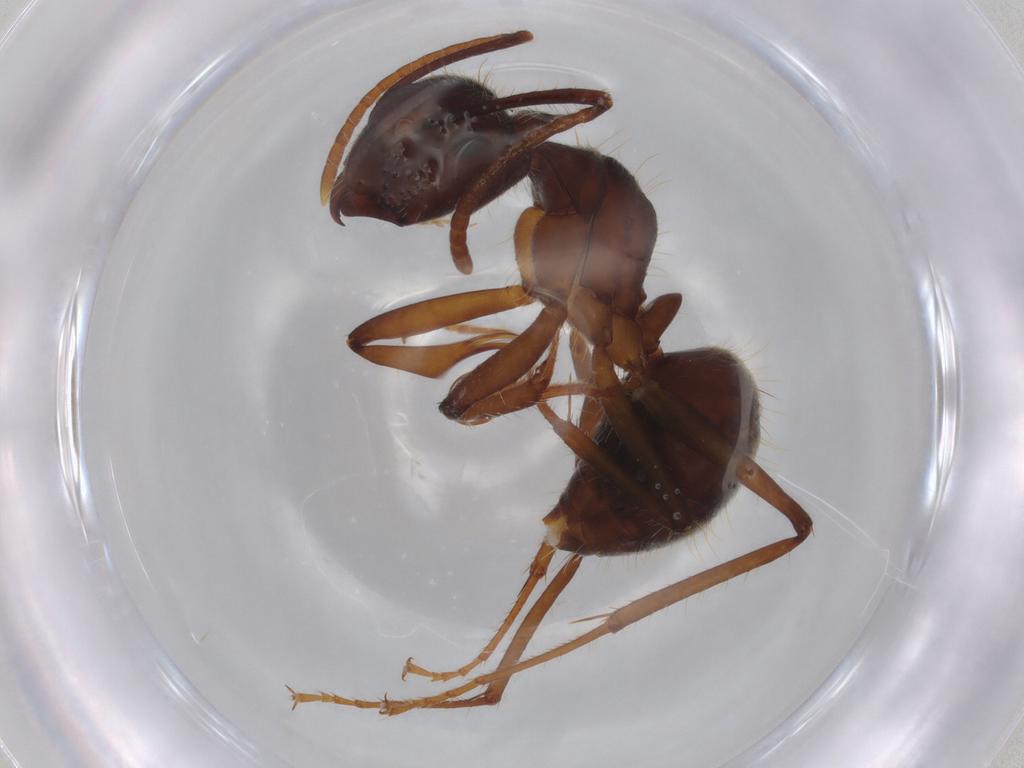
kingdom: Animalia
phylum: Arthropoda
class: Insecta
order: Hymenoptera
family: Formicidae
